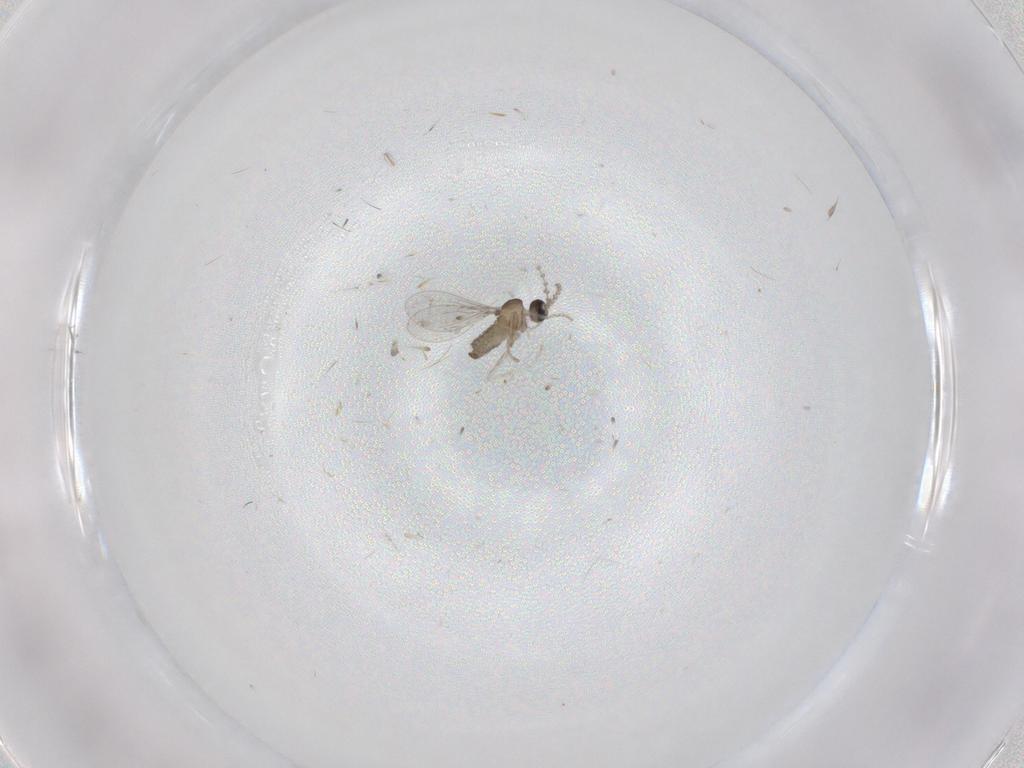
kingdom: Animalia
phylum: Arthropoda
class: Insecta
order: Diptera
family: Cecidomyiidae
